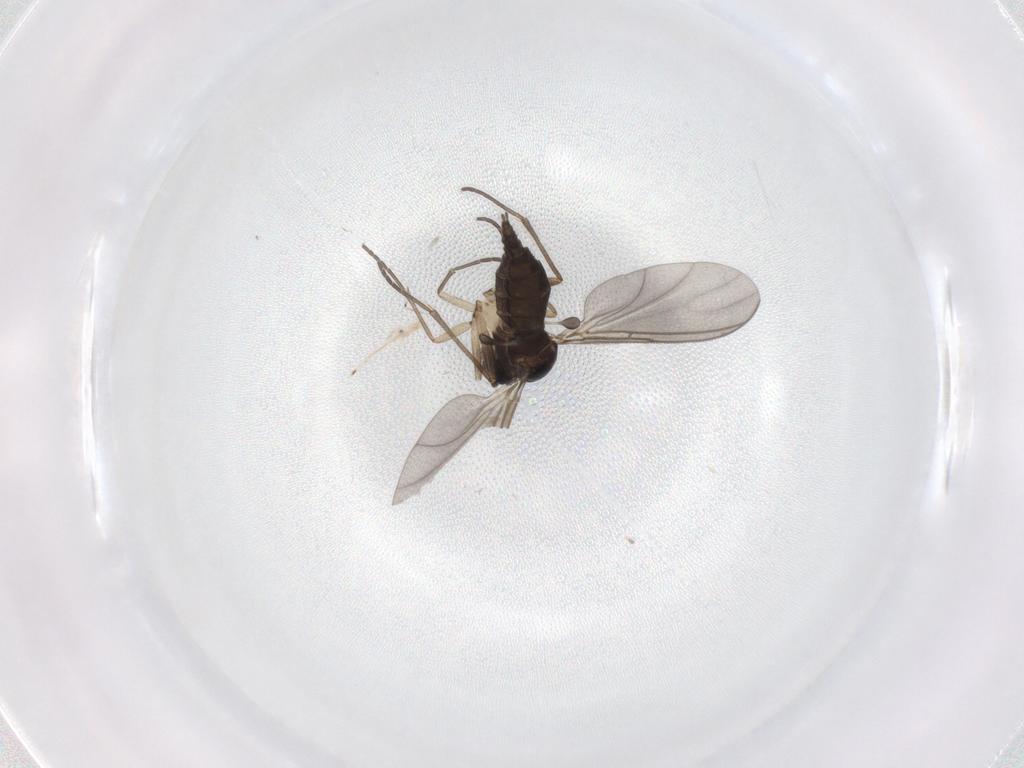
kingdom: Animalia
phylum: Arthropoda
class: Insecta
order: Diptera
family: Sciaridae
